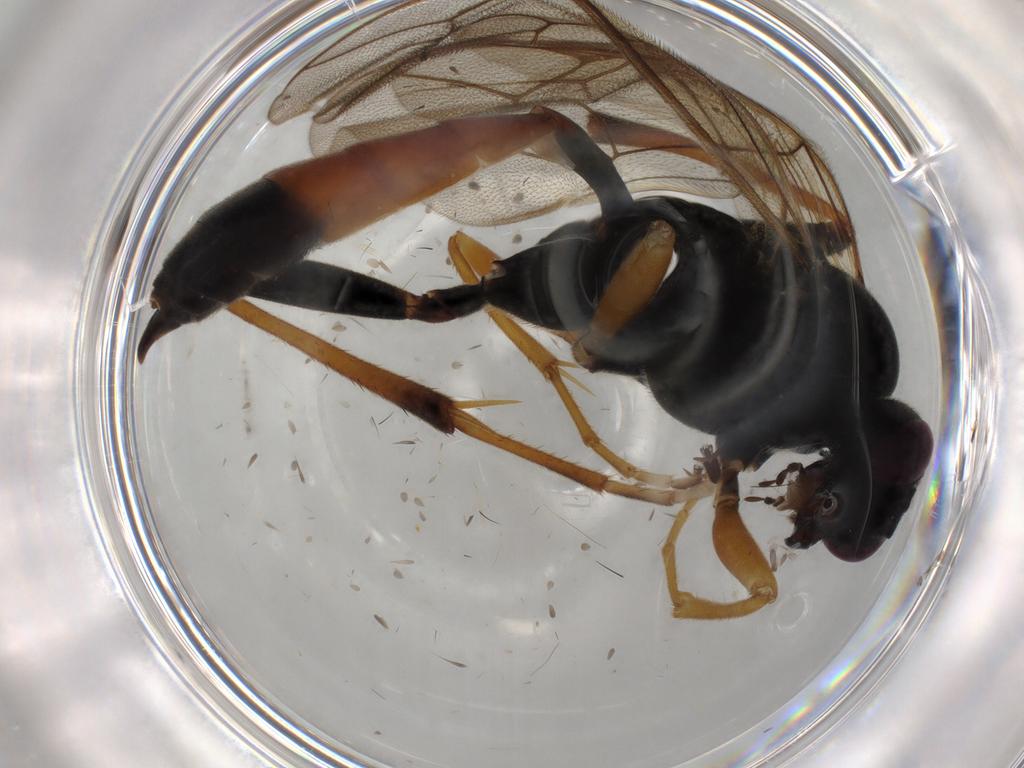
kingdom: Animalia
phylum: Arthropoda
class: Insecta
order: Hymenoptera
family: Ichneumonidae
